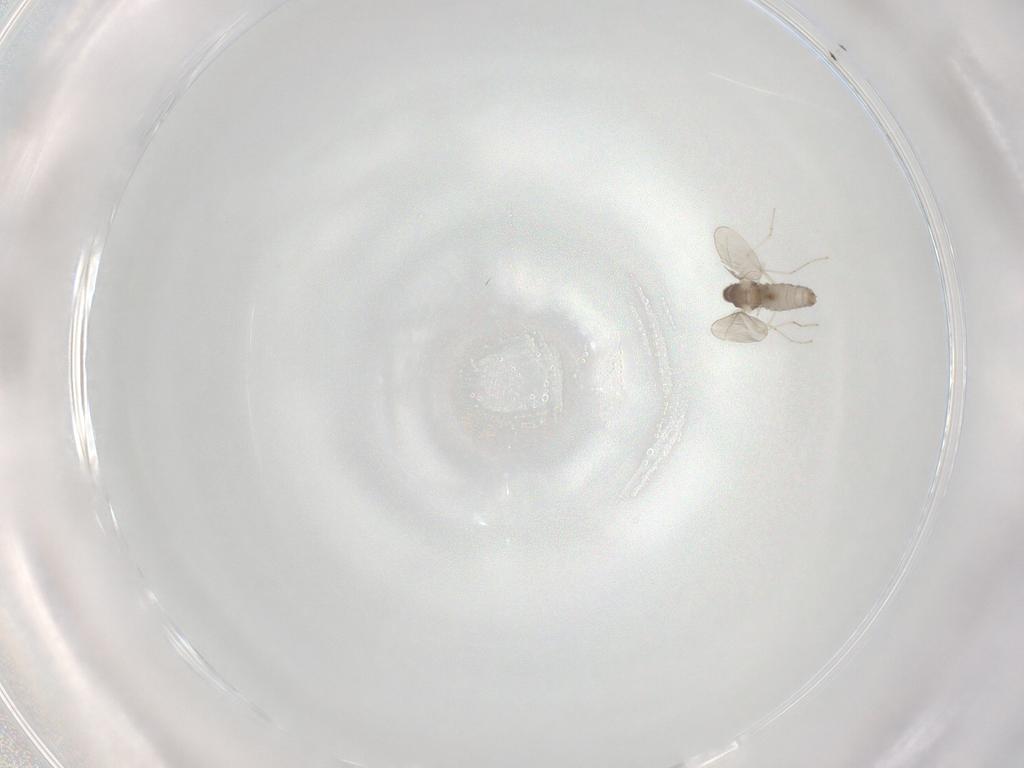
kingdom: Animalia
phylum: Arthropoda
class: Insecta
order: Diptera
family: Cecidomyiidae
